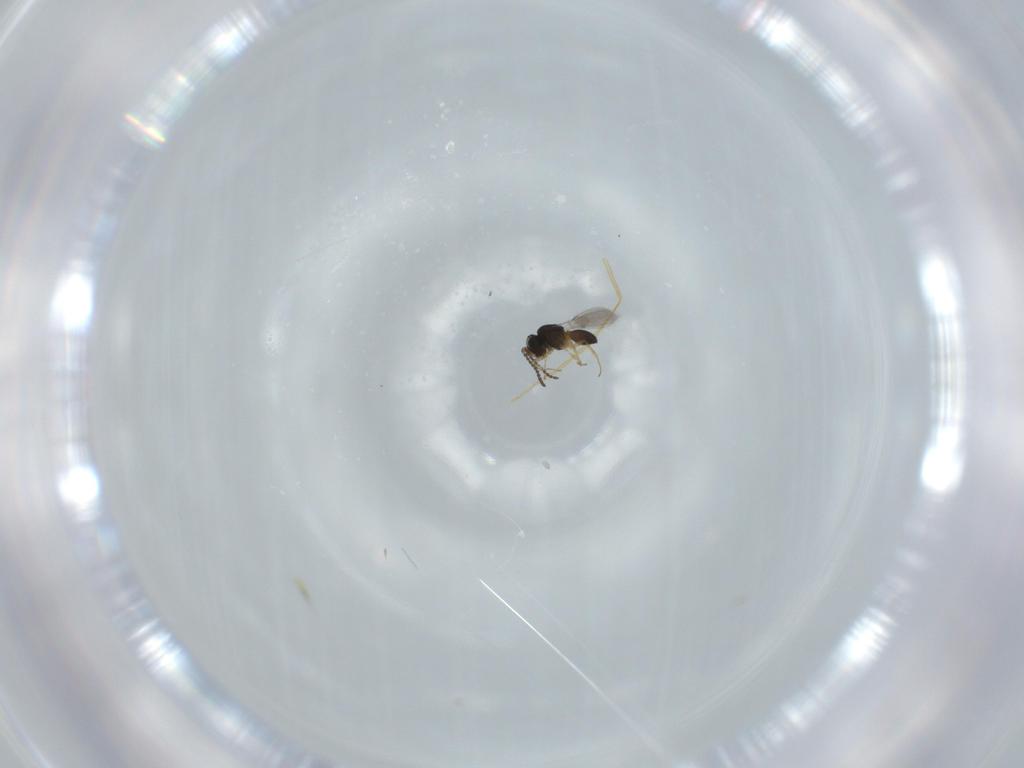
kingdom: Animalia
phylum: Arthropoda
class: Insecta
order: Hymenoptera
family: Scelionidae
